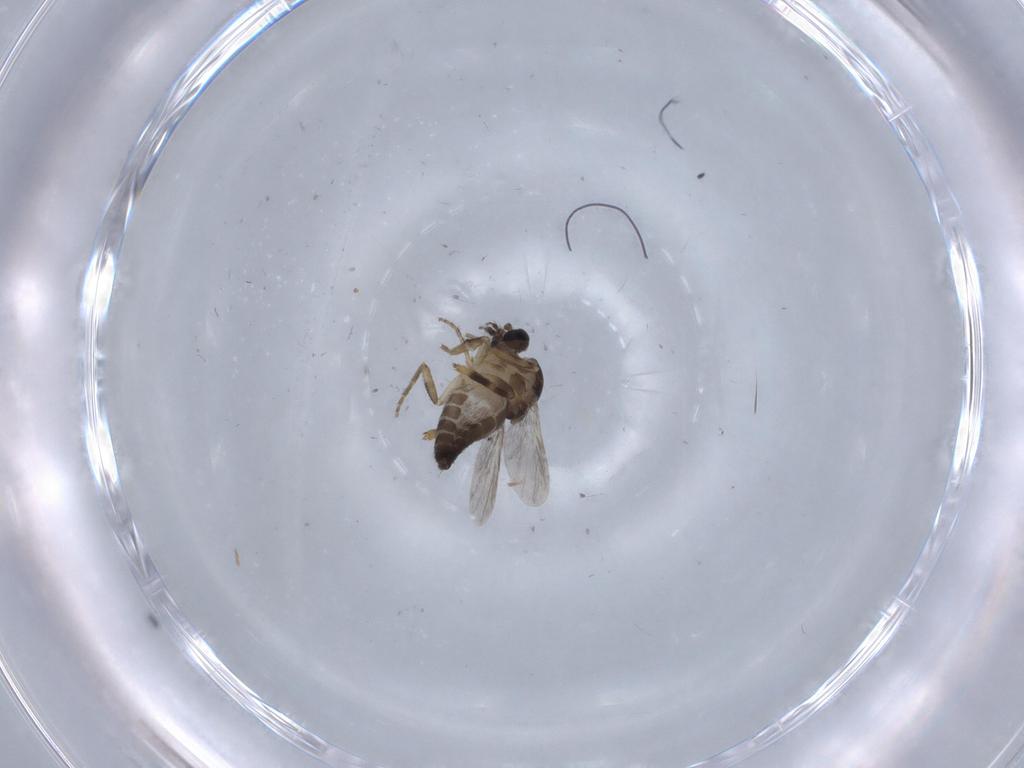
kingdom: Animalia
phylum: Arthropoda
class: Insecta
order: Diptera
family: Ceratopogonidae
